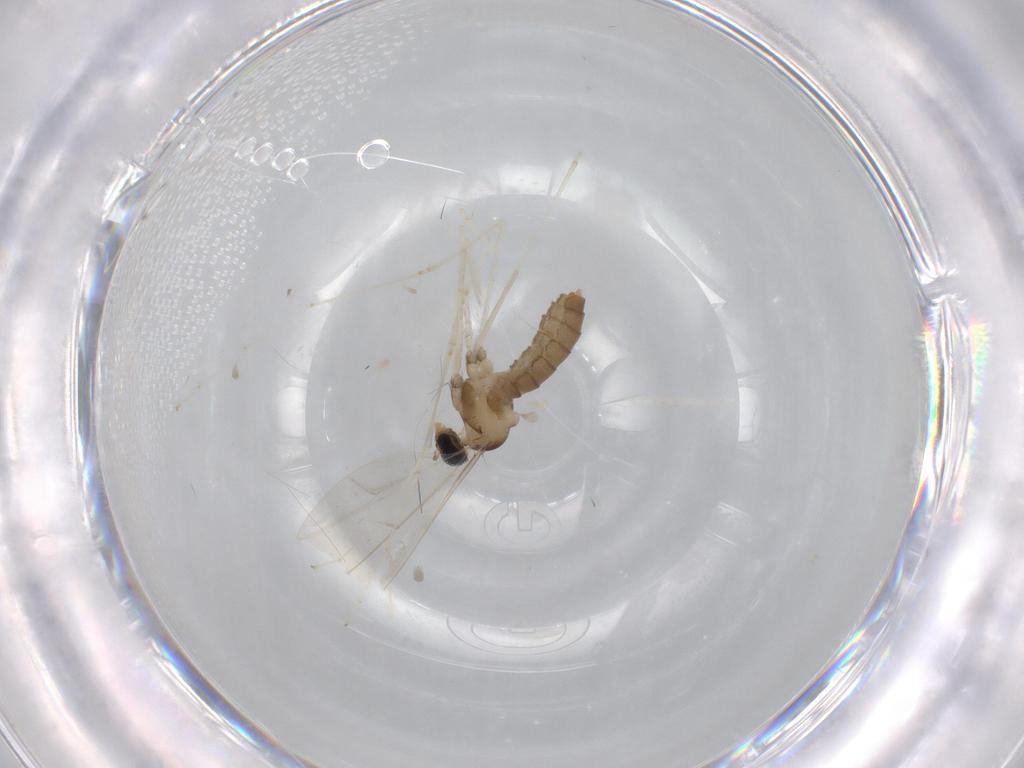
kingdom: Animalia
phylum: Arthropoda
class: Insecta
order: Diptera
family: Cecidomyiidae
